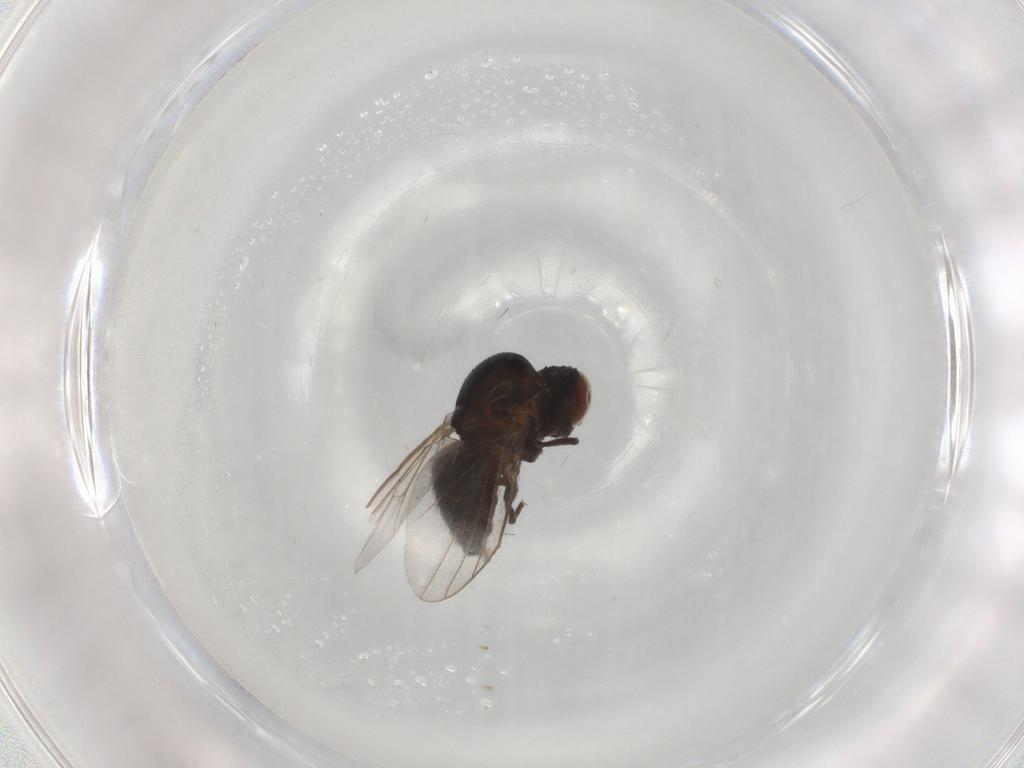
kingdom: Animalia
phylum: Arthropoda
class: Insecta
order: Diptera
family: Agromyzidae
